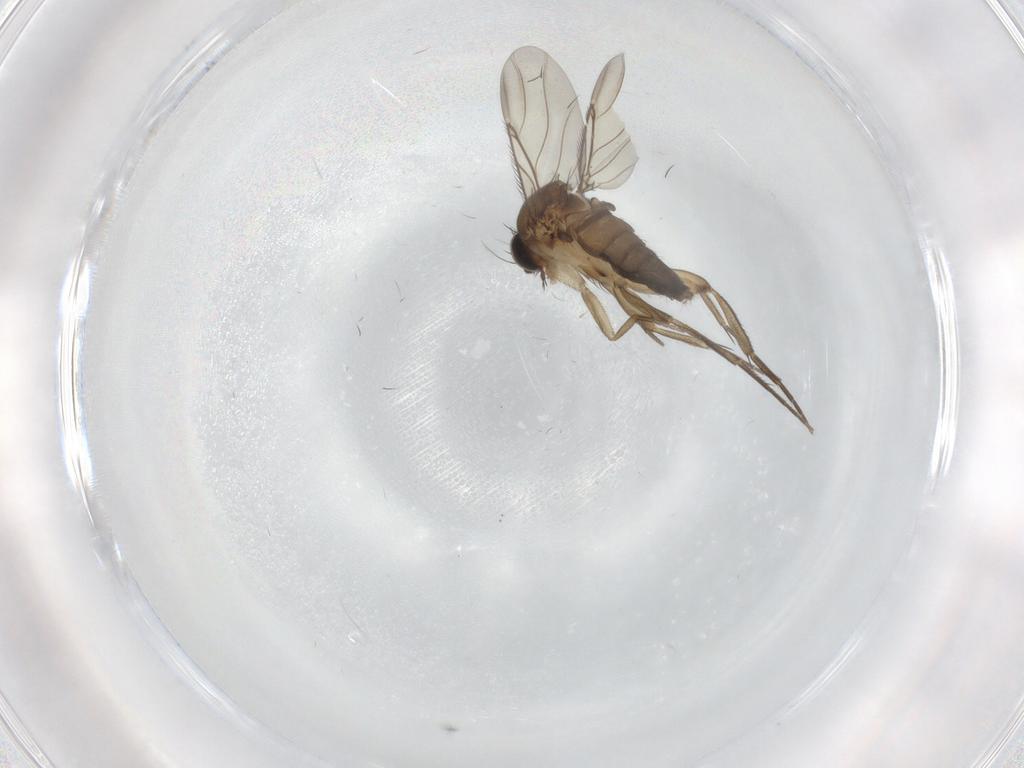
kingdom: Animalia
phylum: Arthropoda
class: Insecta
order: Diptera
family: Phoridae
